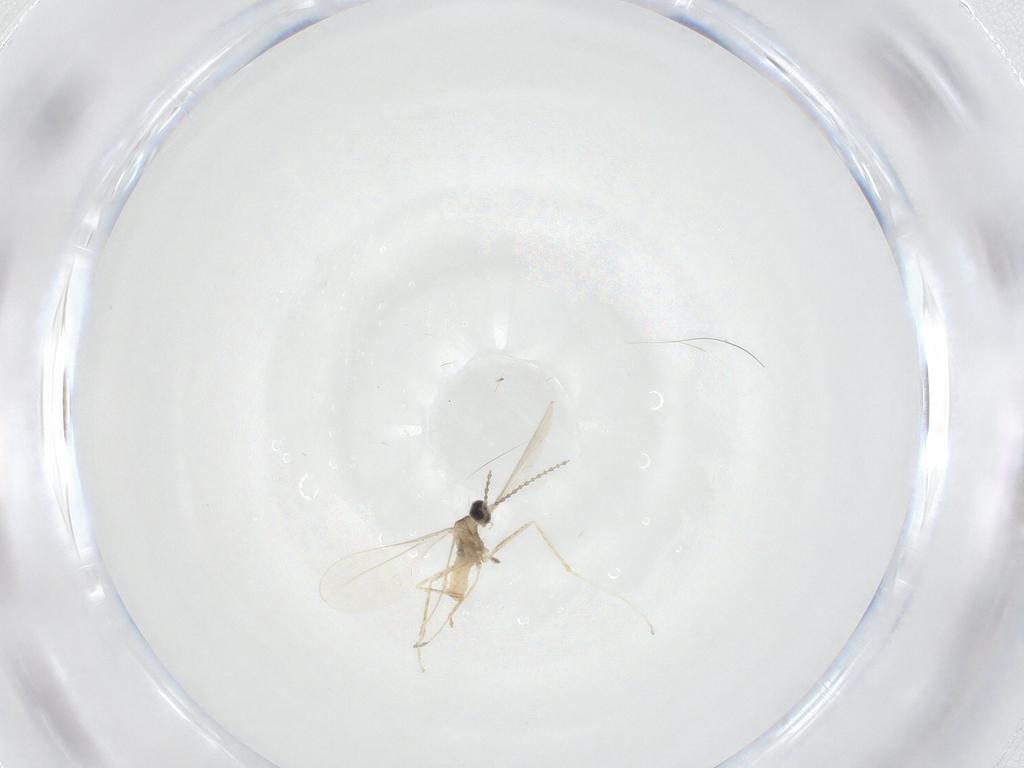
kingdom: Animalia
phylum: Arthropoda
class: Insecta
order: Diptera
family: Cecidomyiidae
